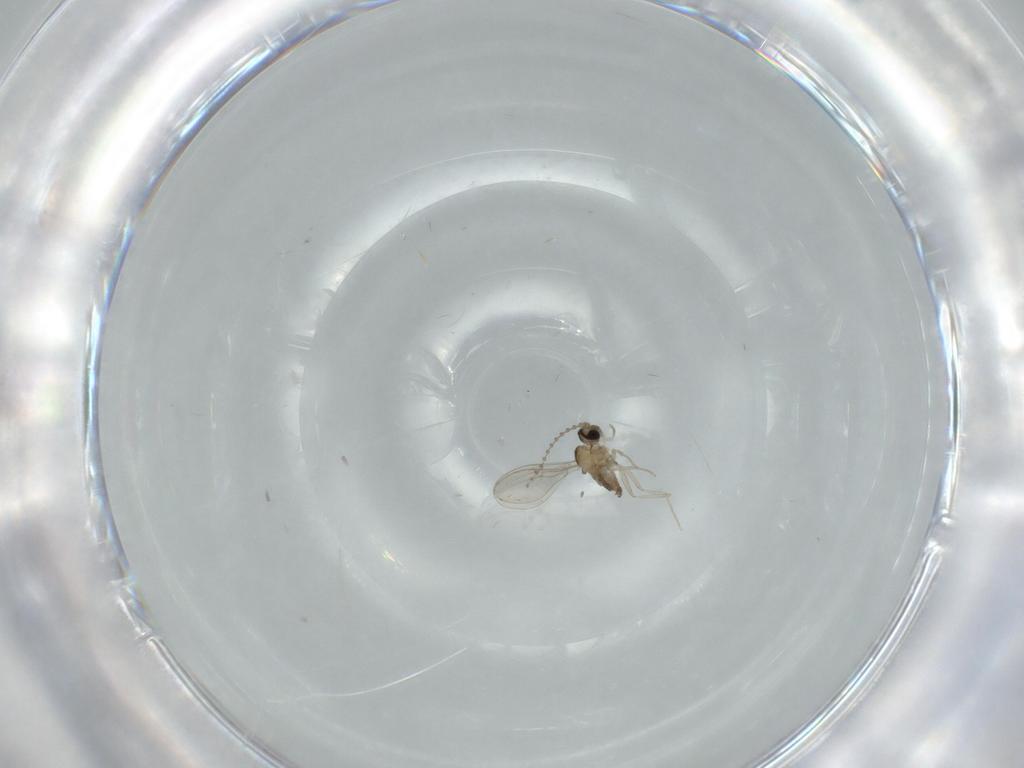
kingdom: Animalia
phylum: Arthropoda
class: Insecta
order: Diptera
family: Cecidomyiidae
